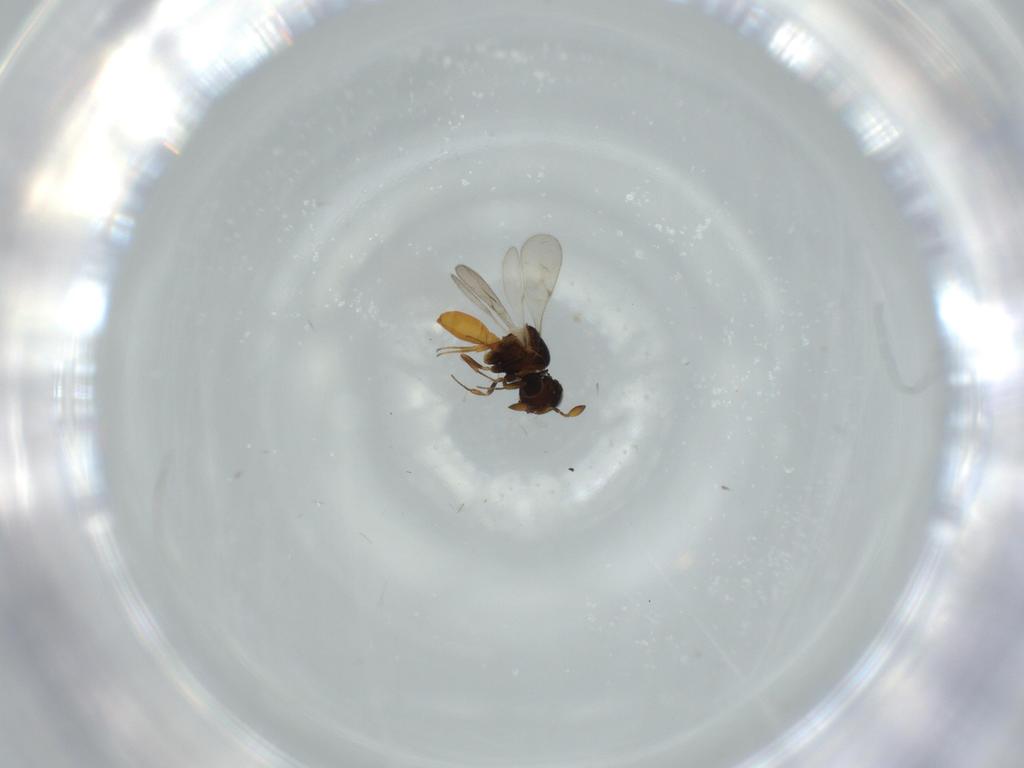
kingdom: Animalia
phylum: Arthropoda
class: Insecta
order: Hymenoptera
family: Scelionidae
